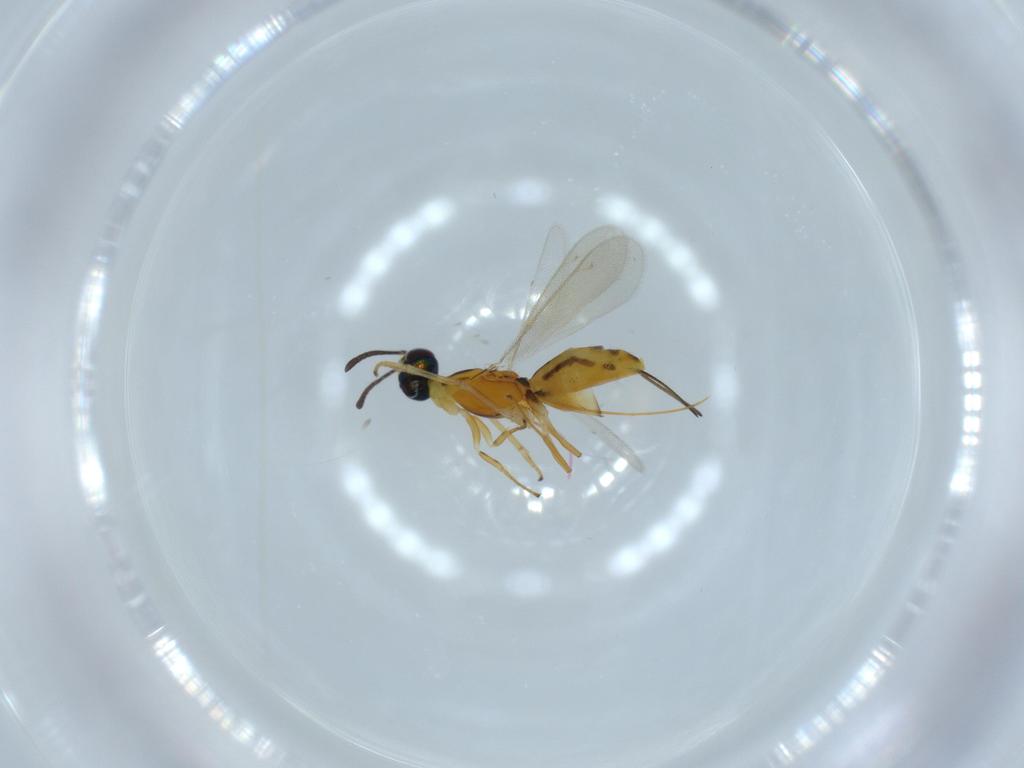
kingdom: Animalia
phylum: Arthropoda
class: Insecta
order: Hymenoptera
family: Eupelmidae
